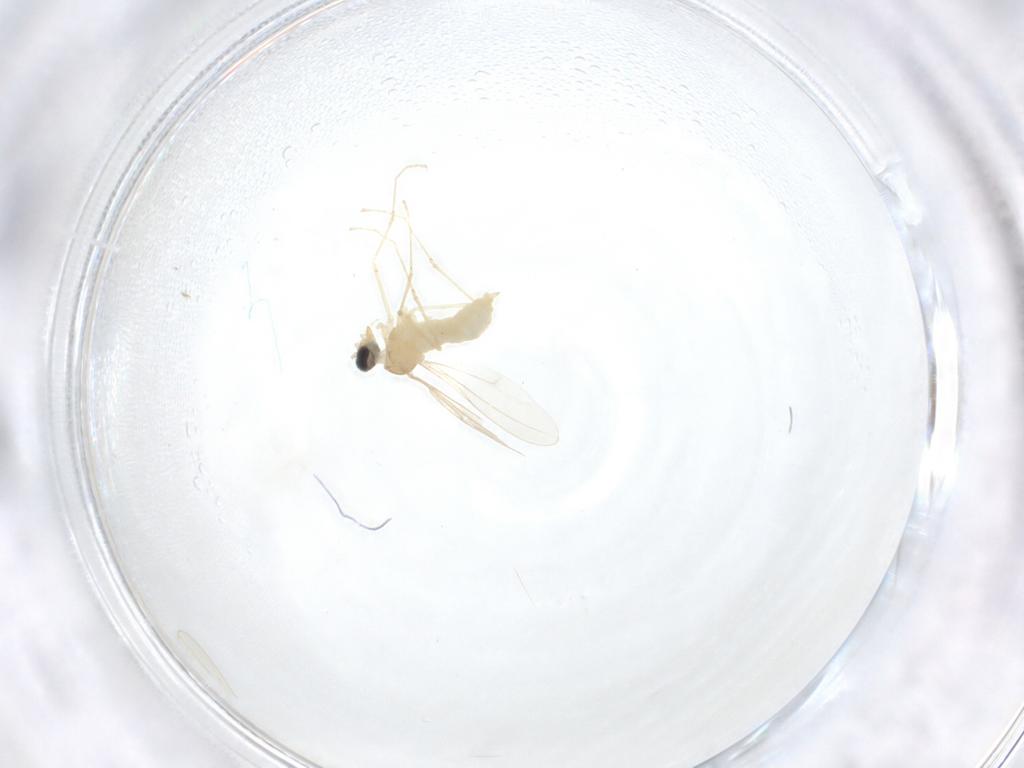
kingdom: Animalia
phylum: Arthropoda
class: Insecta
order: Diptera
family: Cecidomyiidae
